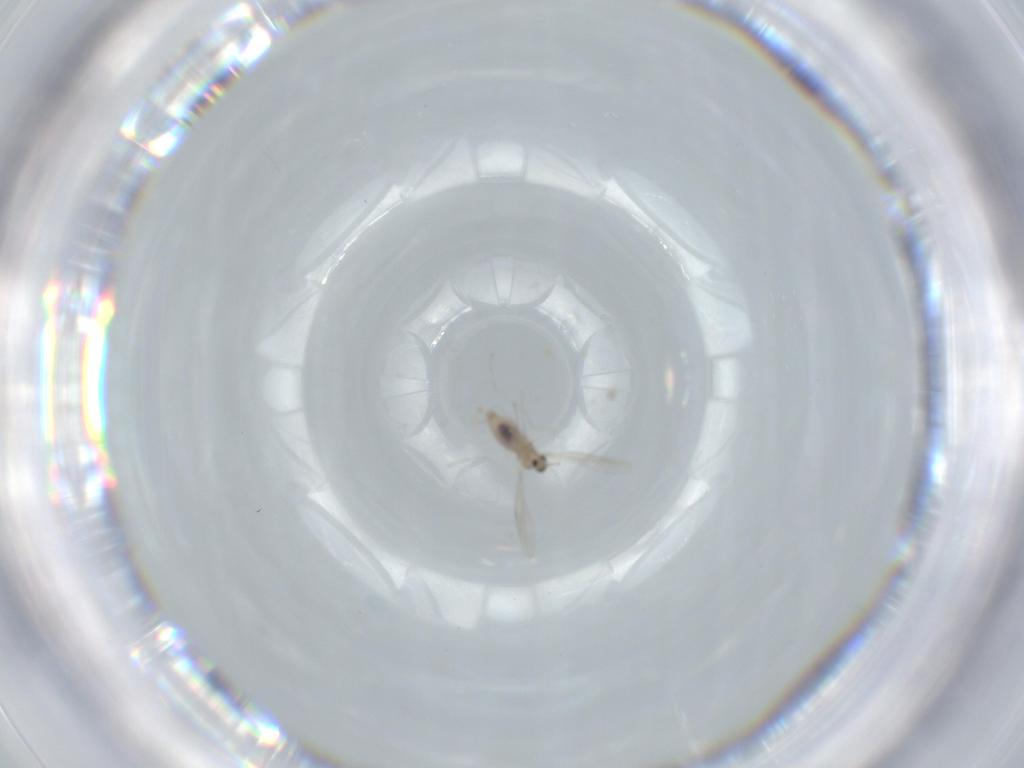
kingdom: Animalia
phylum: Arthropoda
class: Insecta
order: Diptera
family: Cecidomyiidae
